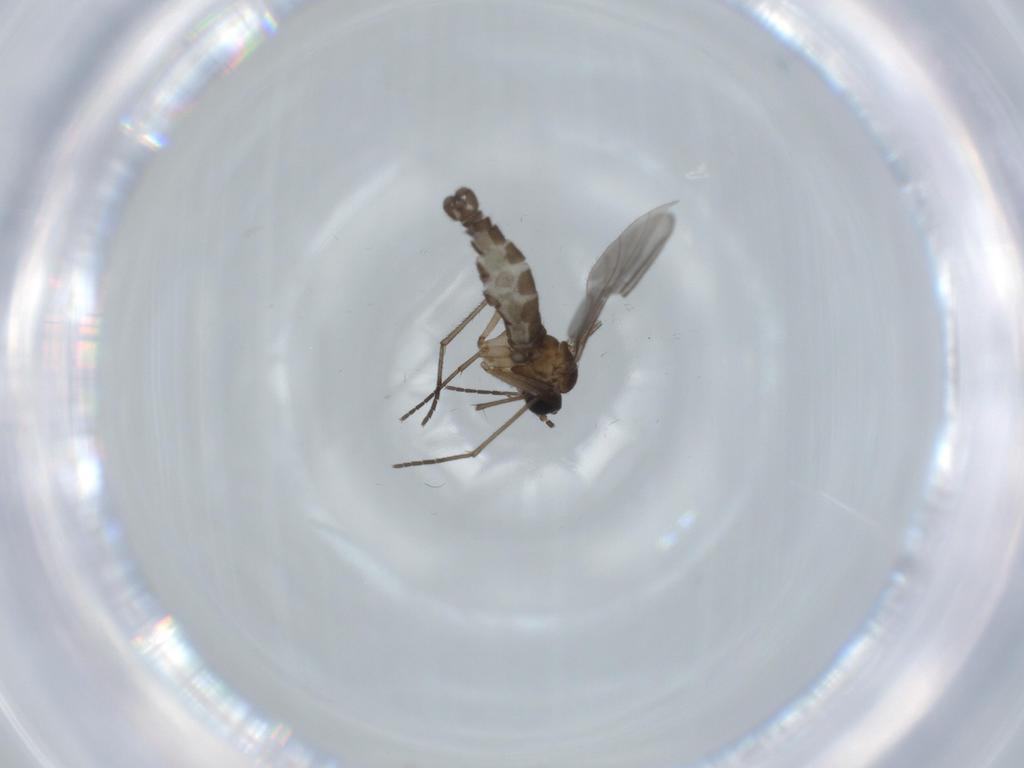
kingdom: Animalia
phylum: Arthropoda
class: Insecta
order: Diptera
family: Sciaridae
